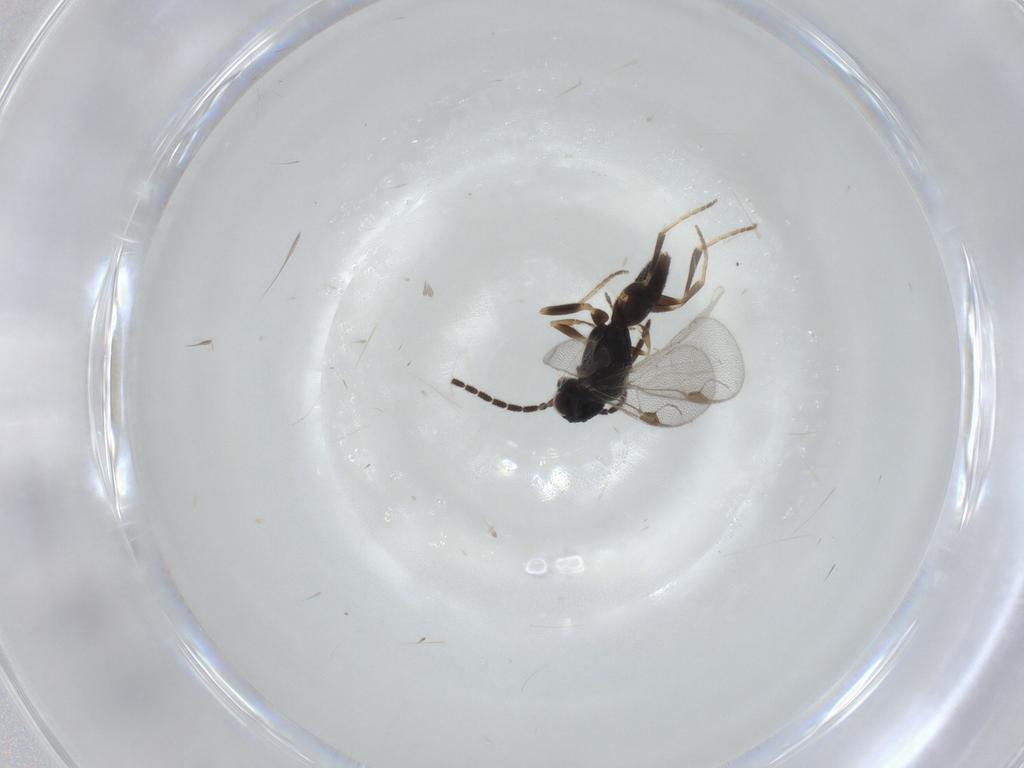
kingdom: Animalia
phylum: Arthropoda
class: Insecta
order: Hymenoptera
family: Dryinidae
